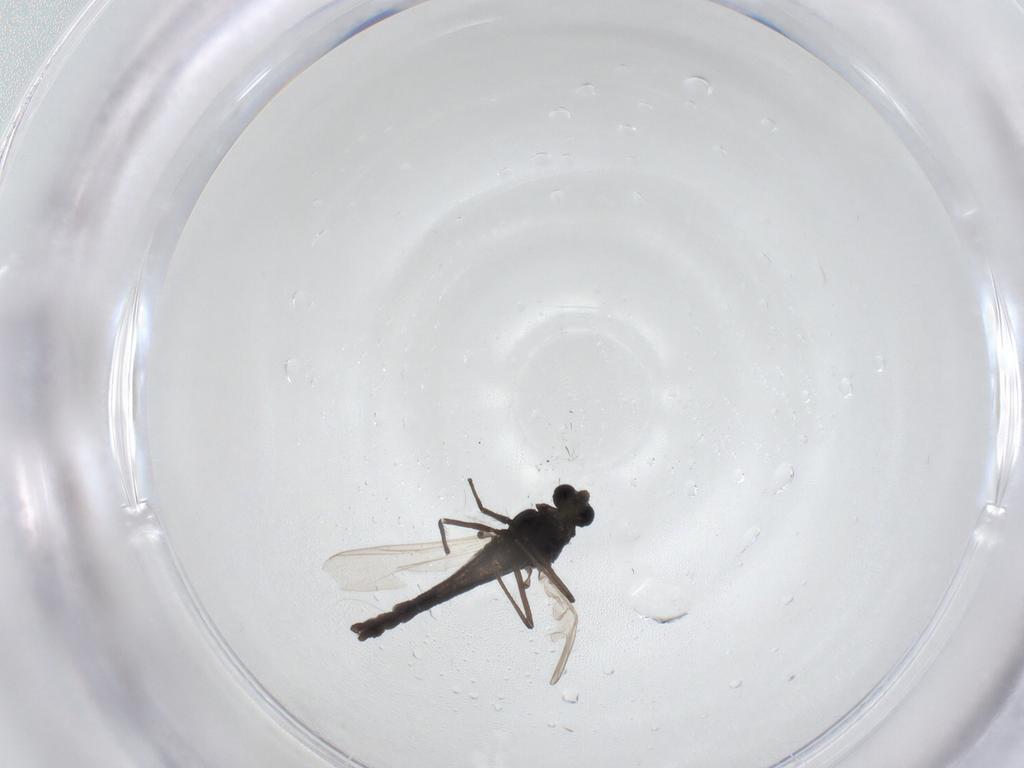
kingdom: Animalia
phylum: Arthropoda
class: Insecta
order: Diptera
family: Chironomidae
